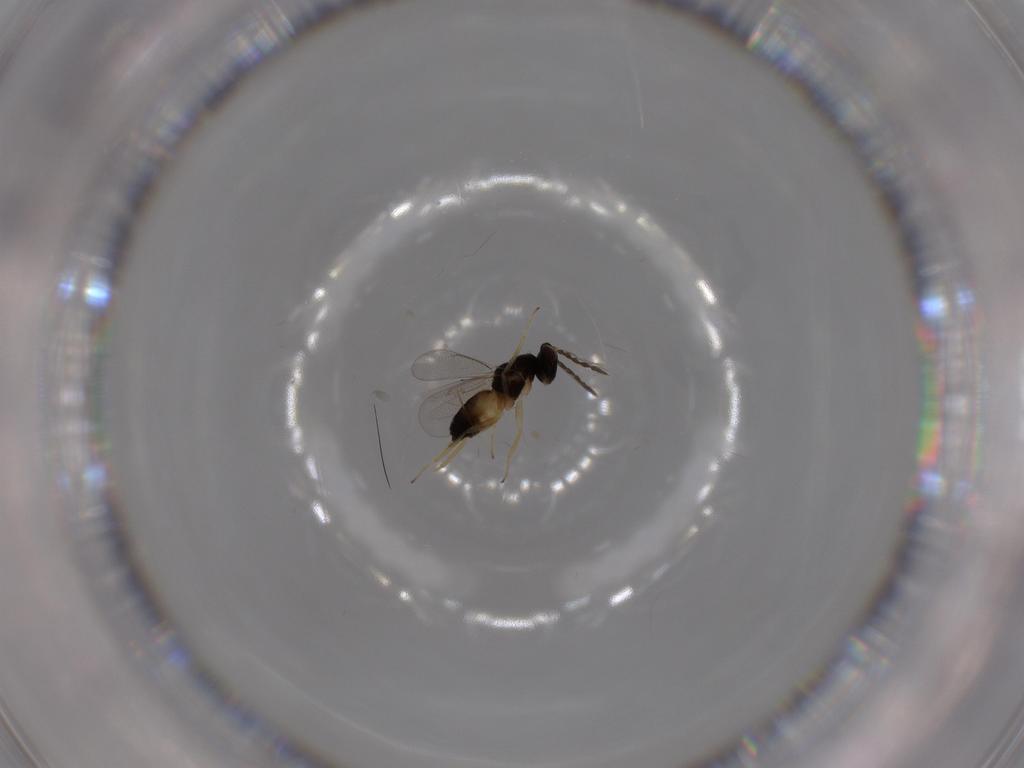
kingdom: Animalia
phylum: Arthropoda
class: Insecta
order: Hymenoptera
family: Eulophidae
